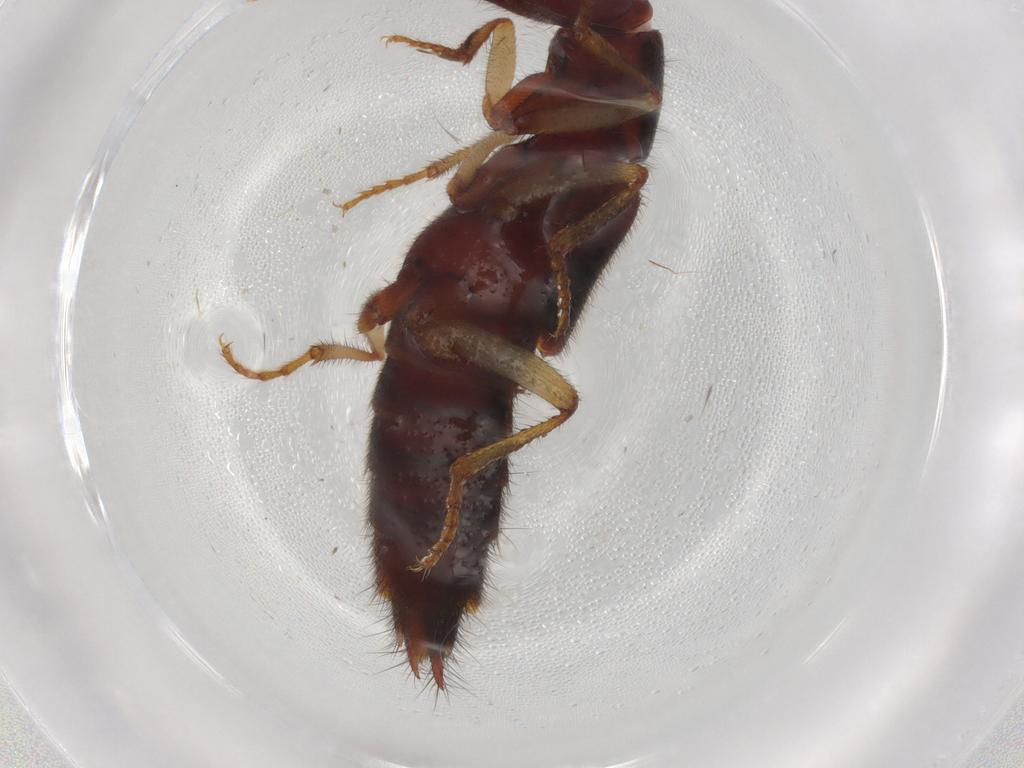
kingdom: Animalia
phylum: Arthropoda
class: Insecta
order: Coleoptera
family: Staphylinidae
